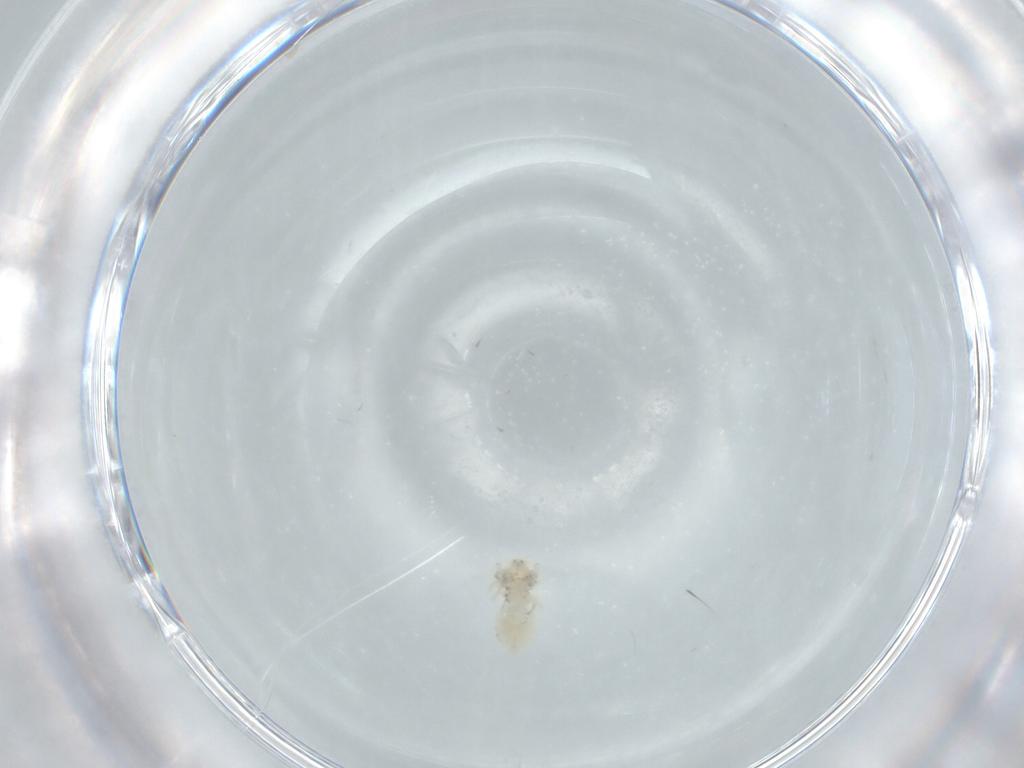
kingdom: Animalia
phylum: Arthropoda
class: Insecta
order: Psocodea
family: Lepidopsocidae
